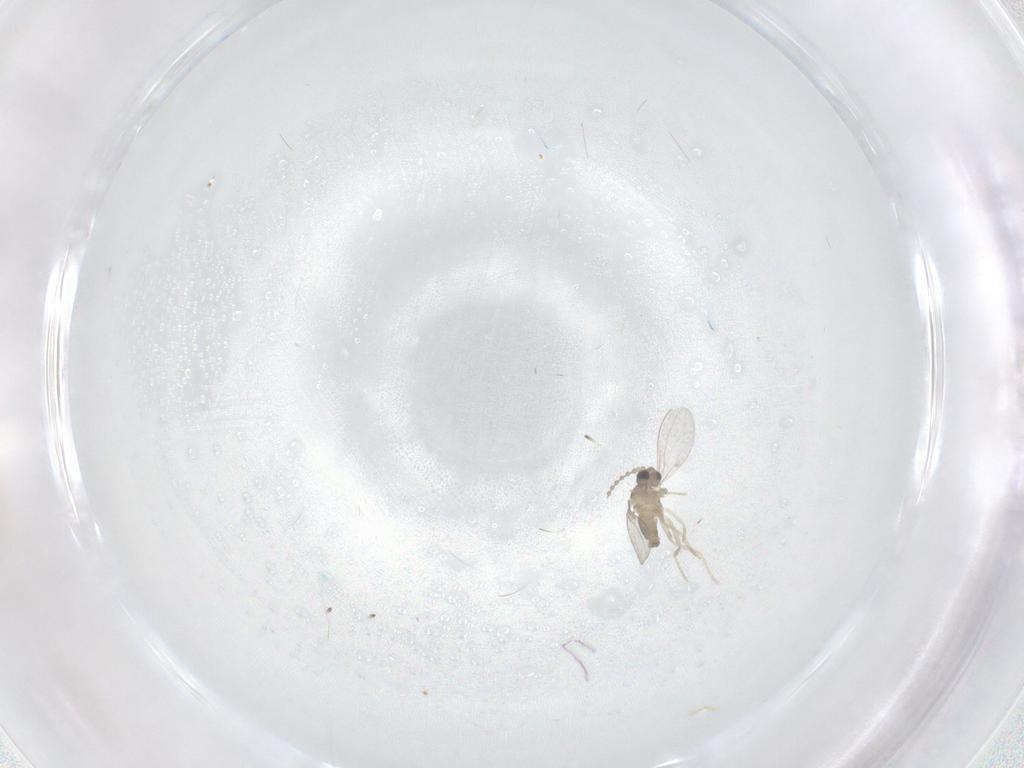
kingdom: Animalia
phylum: Arthropoda
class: Insecta
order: Diptera
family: Cecidomyiidae
